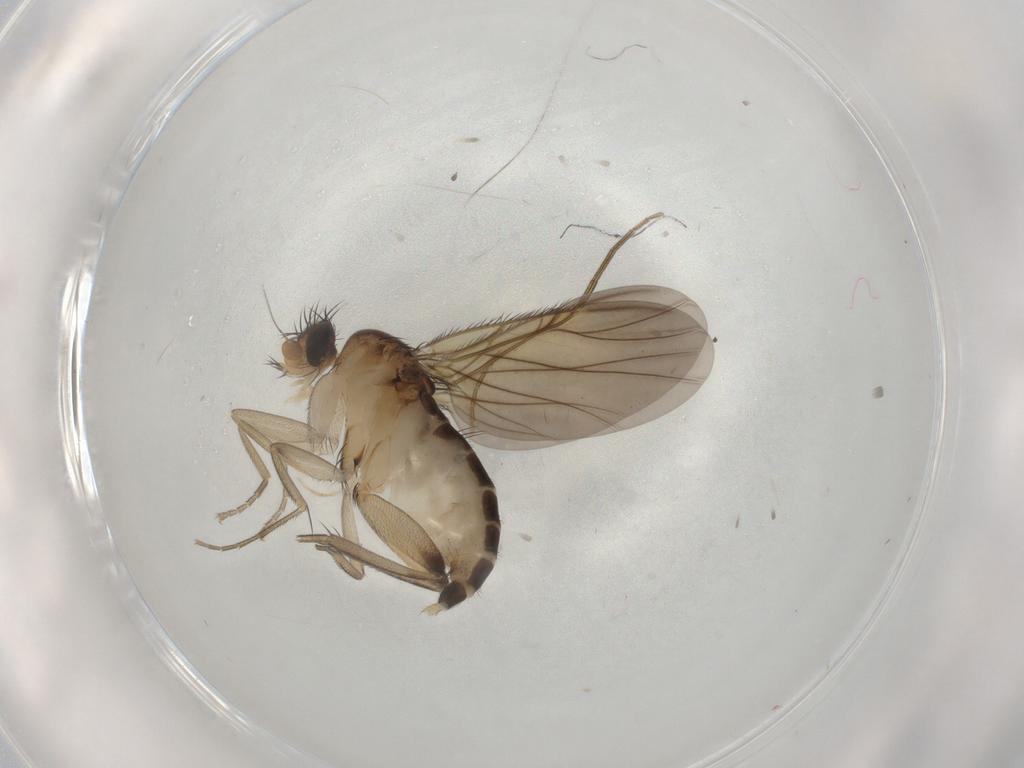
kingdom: Animalia
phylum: Arthropoda
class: Insecta
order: Diptera
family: Phoridae
